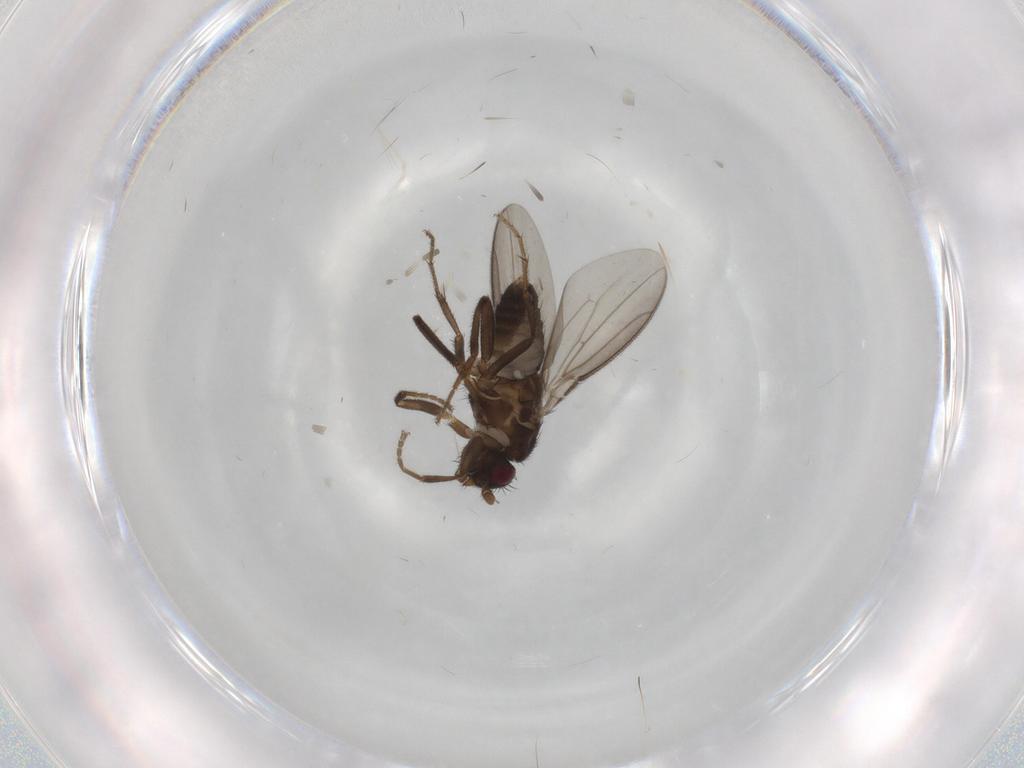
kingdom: Animalia
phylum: Arthropoda
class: Insecta
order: Diptera
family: Sphaeroceridae
